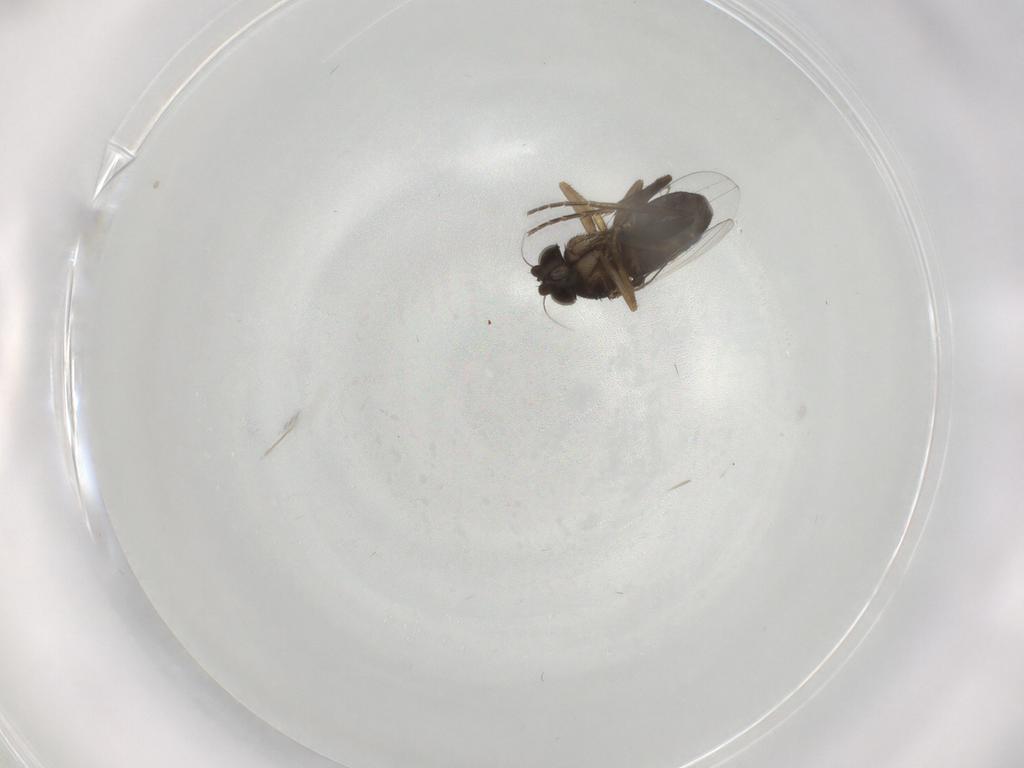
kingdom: Animalia
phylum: Arthropoda
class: Insecta
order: Diptera
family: Phoridae
